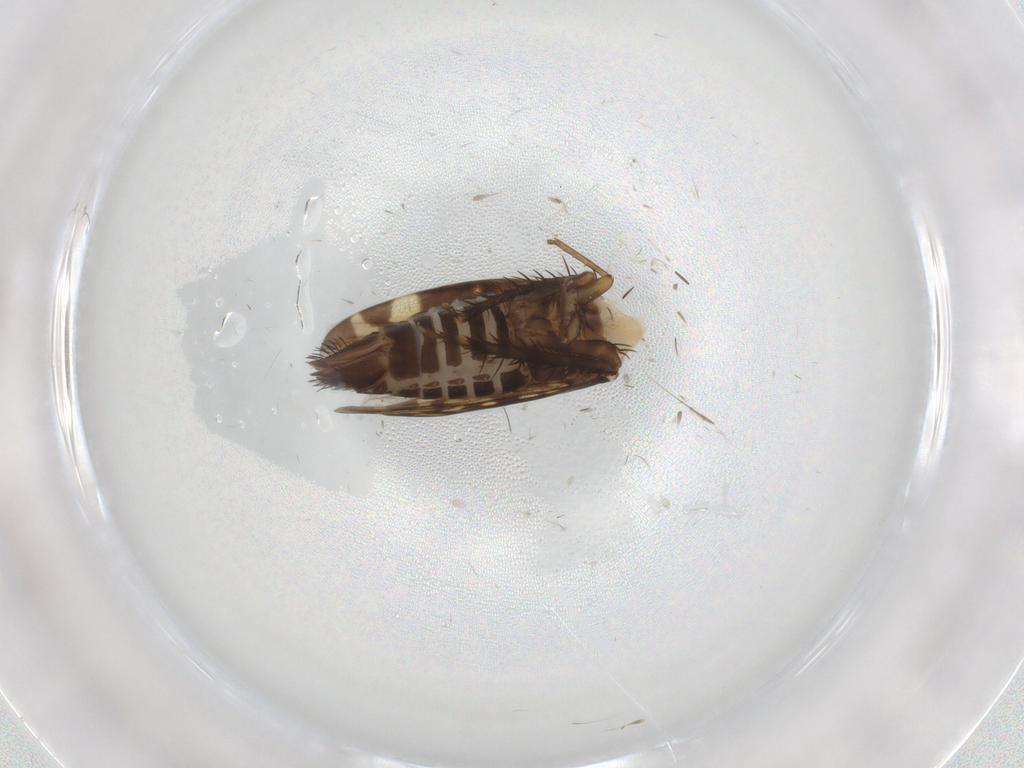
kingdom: Animalia
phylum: Arthropoda
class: Insecta
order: Hemiptera
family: Cicadellidae
